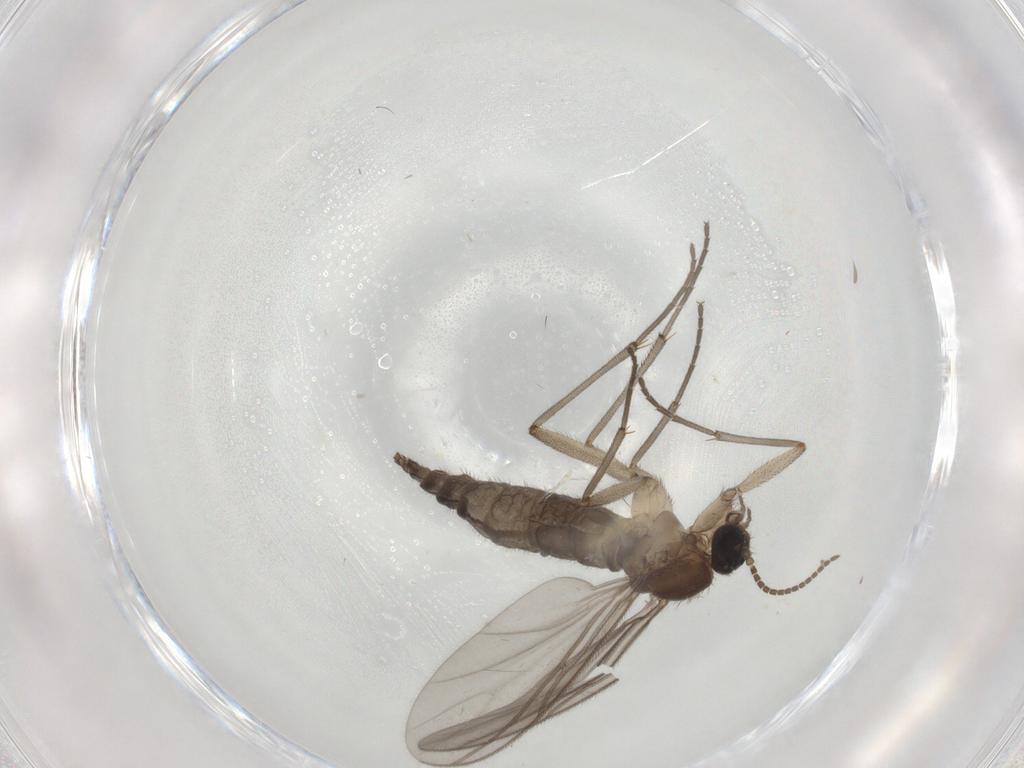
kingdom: Animalia
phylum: Arthropoda
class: Insecta
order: Diptera
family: Sciaridae
